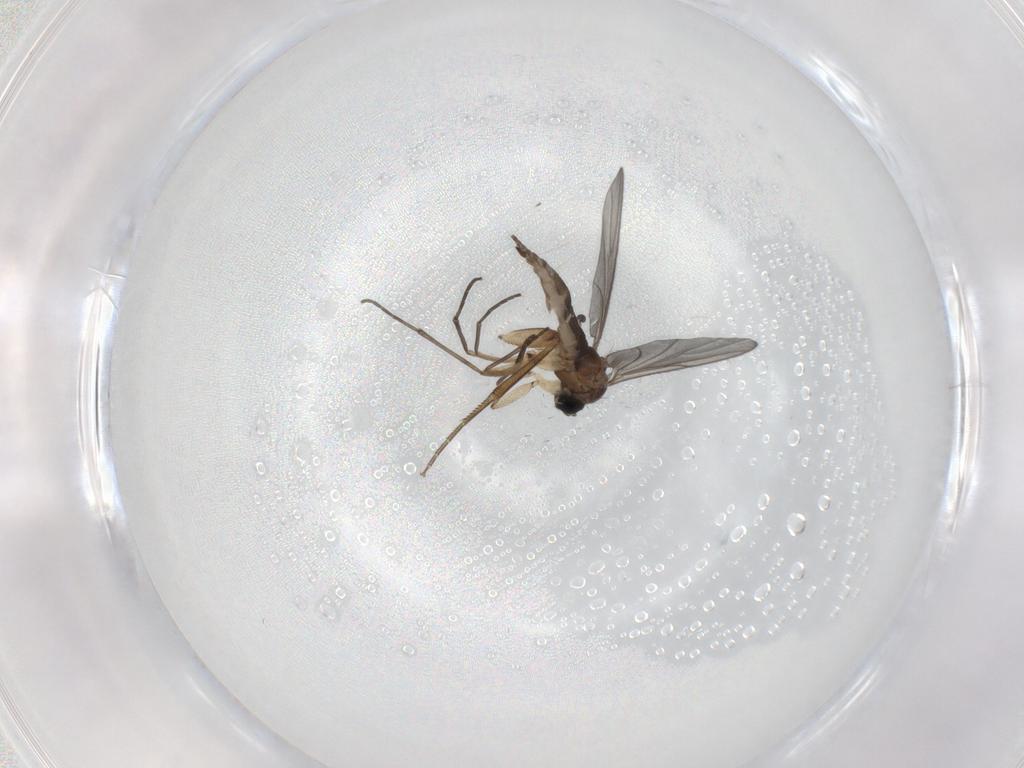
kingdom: Animalia
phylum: Arthropoda
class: Insecta
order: Diptera
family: Sciaridae
